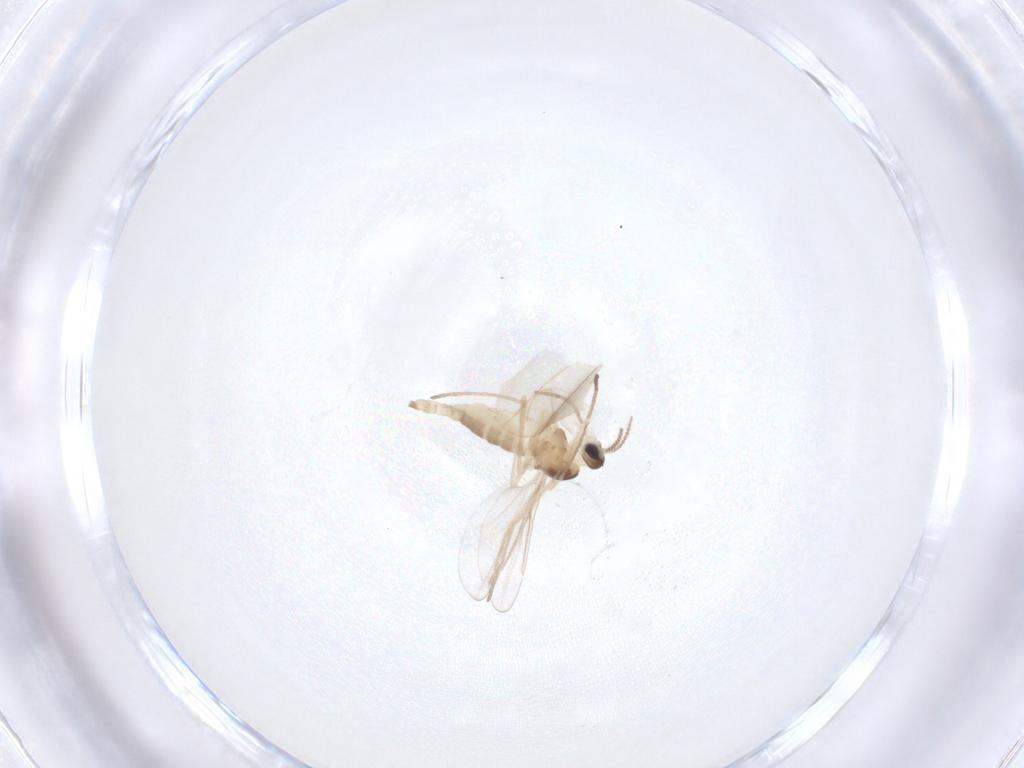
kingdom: Animalia
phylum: Arthropoda
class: Insecta
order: Diptera
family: Cecidomyiidae
